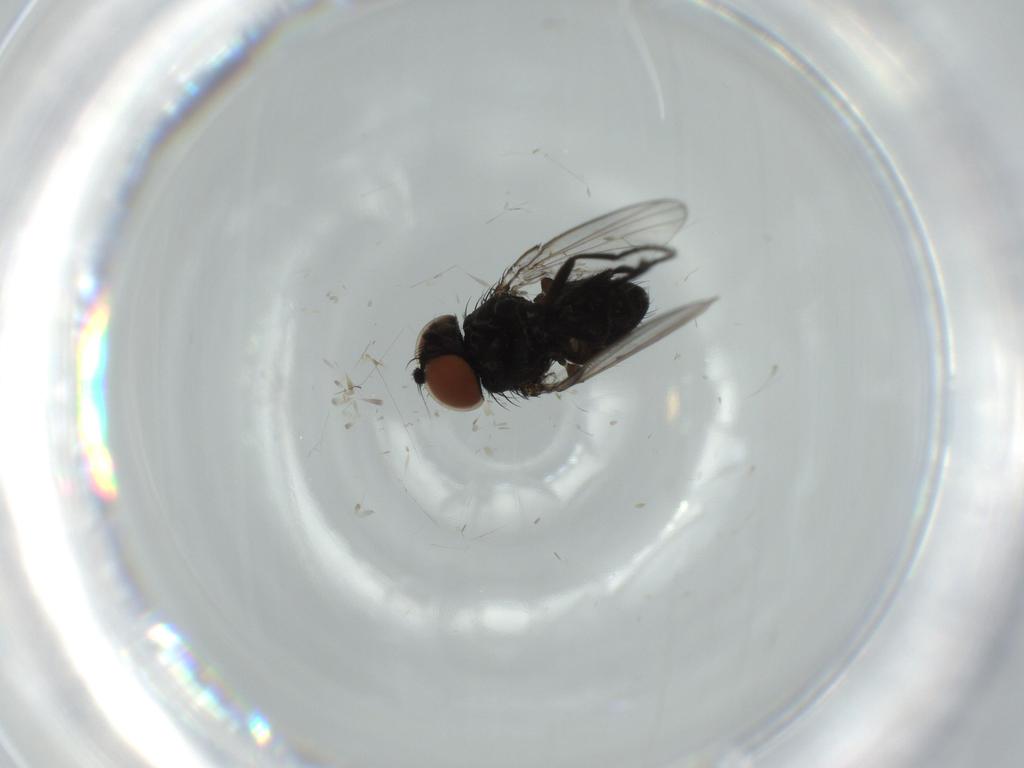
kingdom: Animalia
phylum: Arthropoda
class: Insecta
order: Diptera
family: Milichiidae
